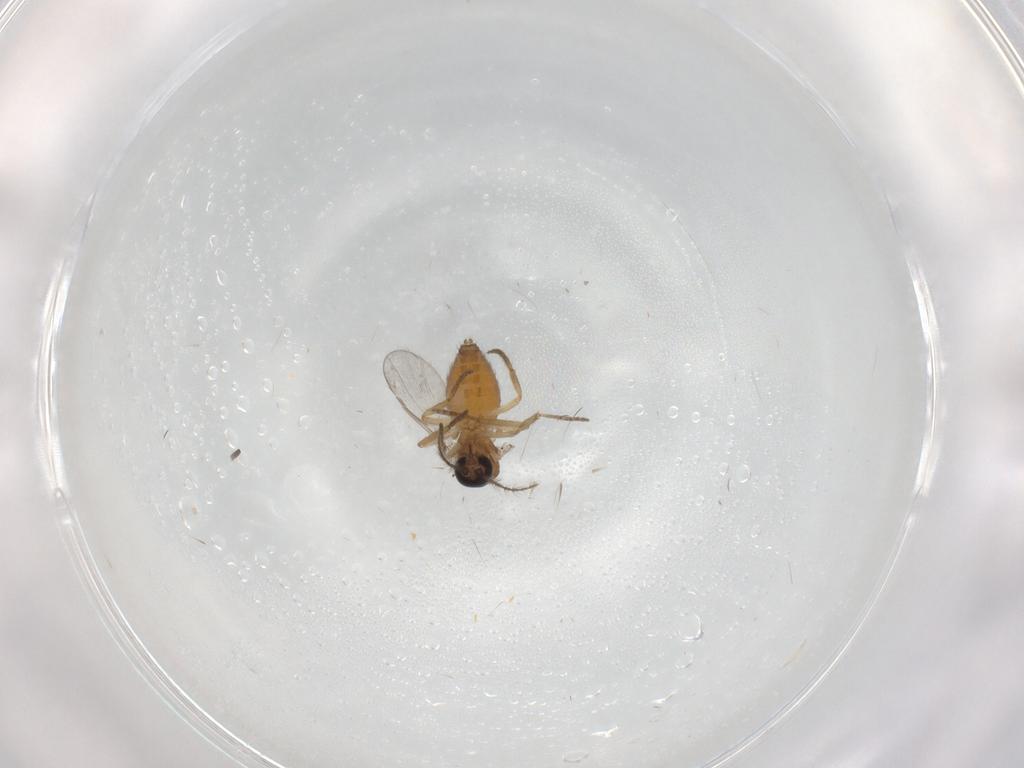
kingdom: Animalia
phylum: Arthropoda
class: Insecta
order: Diptera
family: Ceratopogonidae
